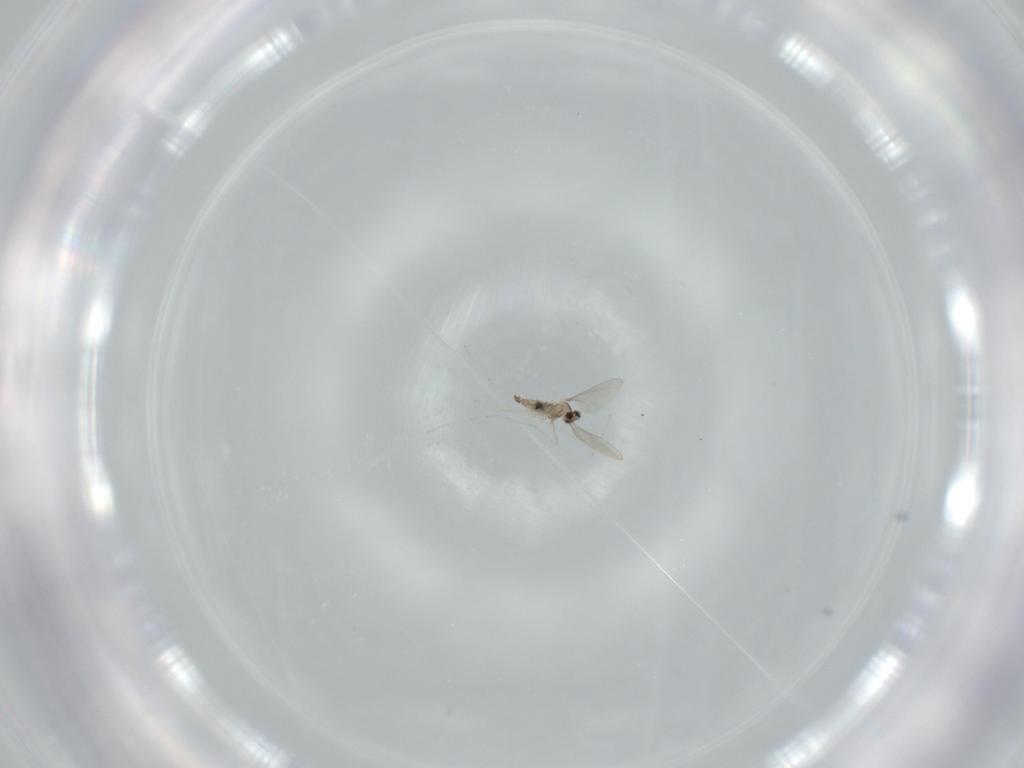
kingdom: Animalia
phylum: Arthropoda
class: Insecta
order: Diptera
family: Cecidomyiidae
